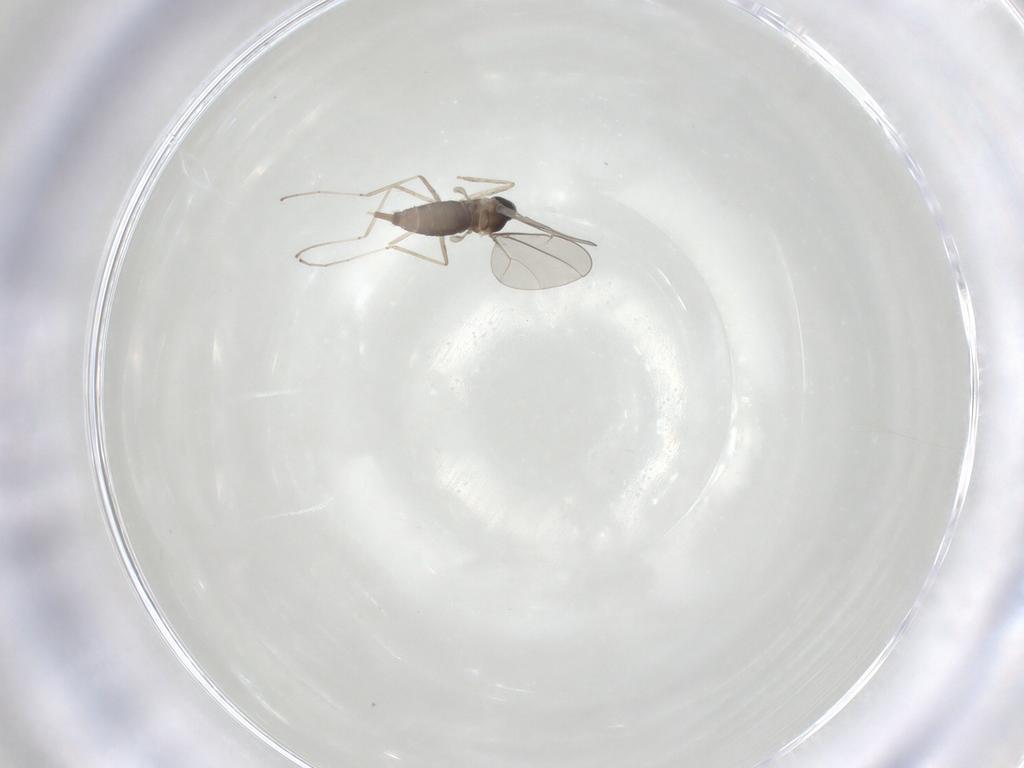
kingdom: Animalia
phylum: Arthropoda
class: Insecta
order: Diptera
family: Cecidomyiidae
